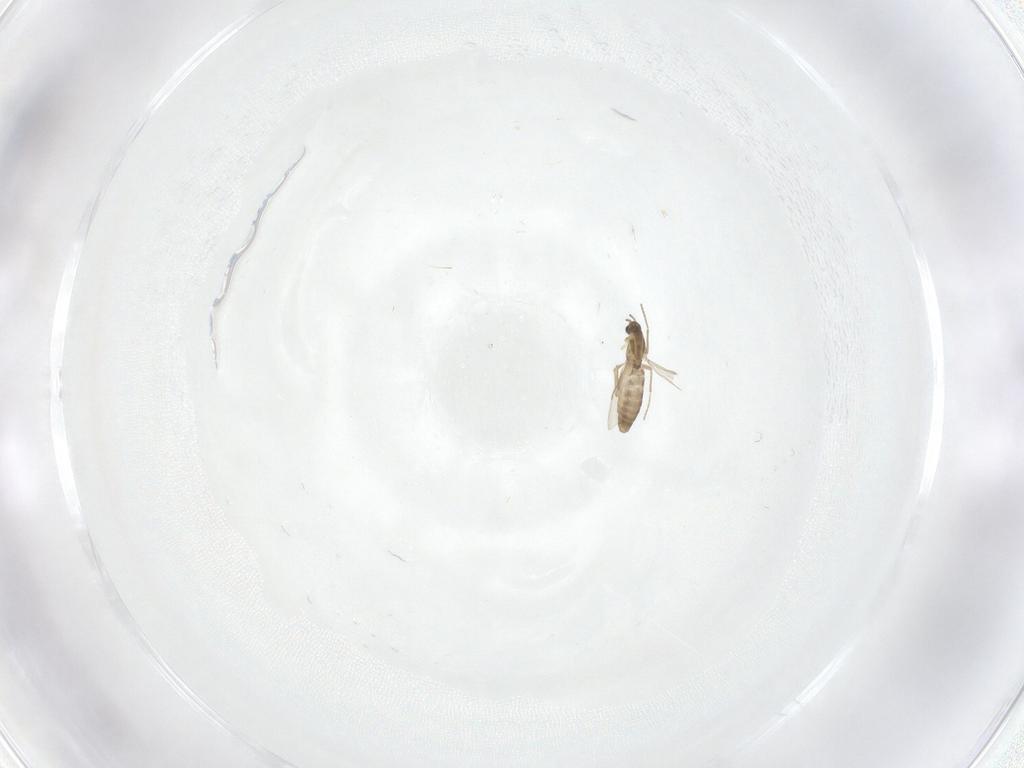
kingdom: Animalia
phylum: Arthropoda
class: Insecta
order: Diptera
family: Chironomidae
